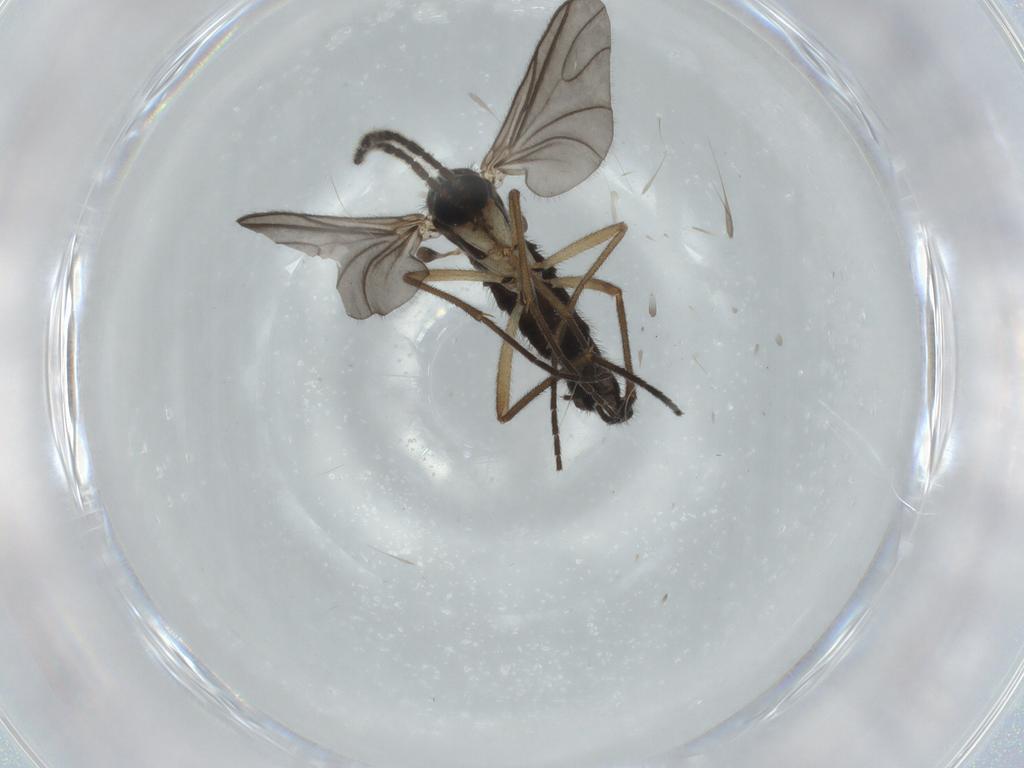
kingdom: Animalia
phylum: Arthropoda
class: Insecta
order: Diptera
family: Sciaridae
